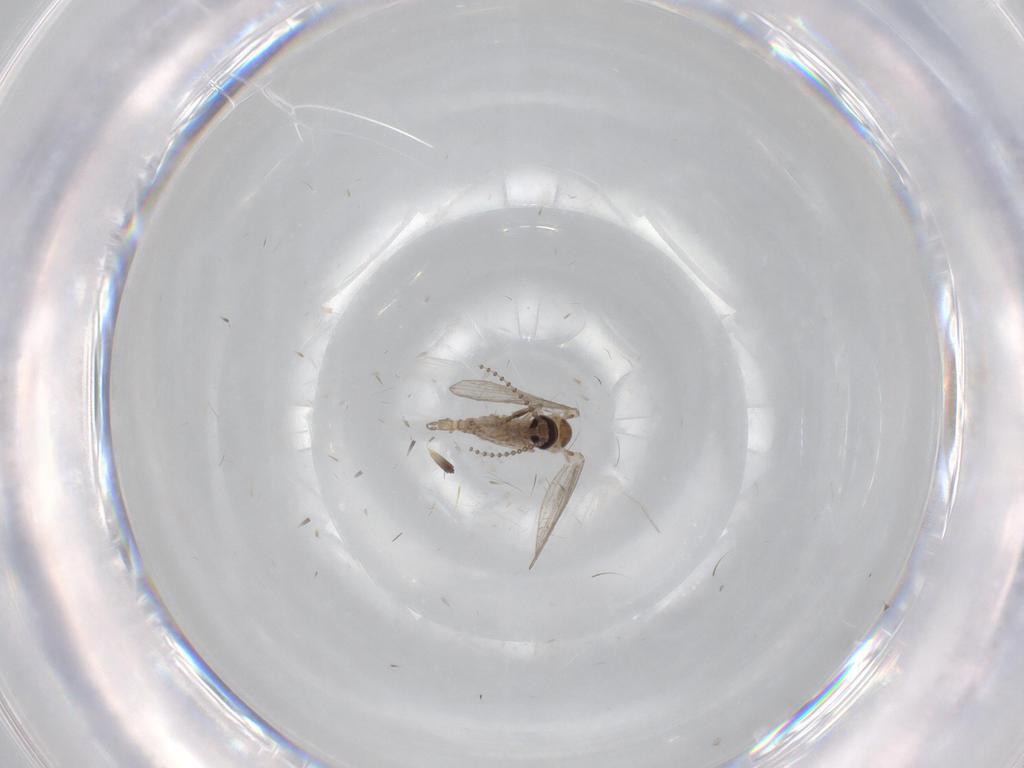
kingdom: Animalia
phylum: Arthropoda
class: Insecta
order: Diptera
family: Psychodidae
